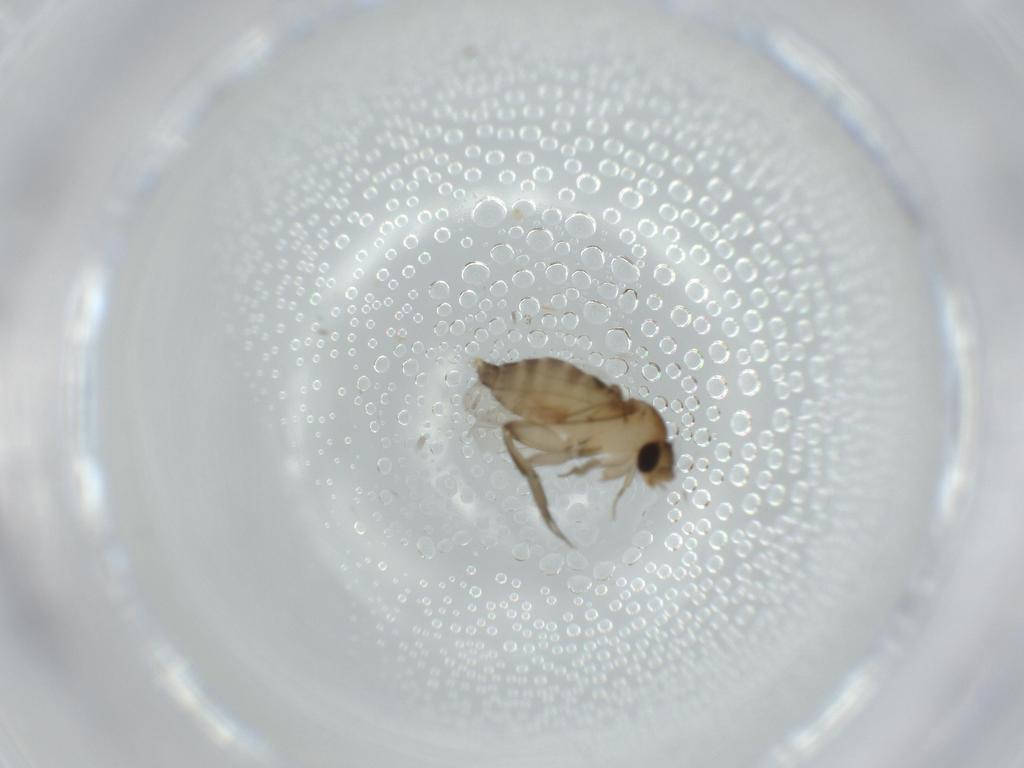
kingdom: Animalia
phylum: Arthropoda
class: Insecta
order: Diptera
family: Phoridae
